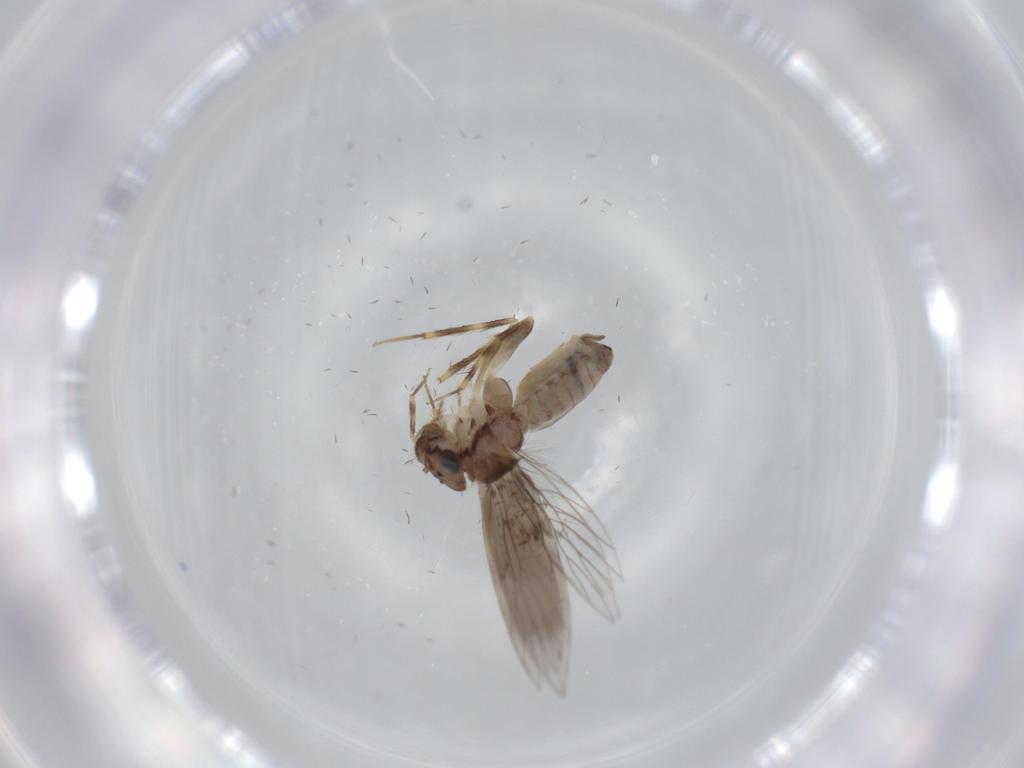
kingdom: Animalia
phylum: Arthropoda
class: Insecta
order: Psocodea
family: Lepidopsocidae
